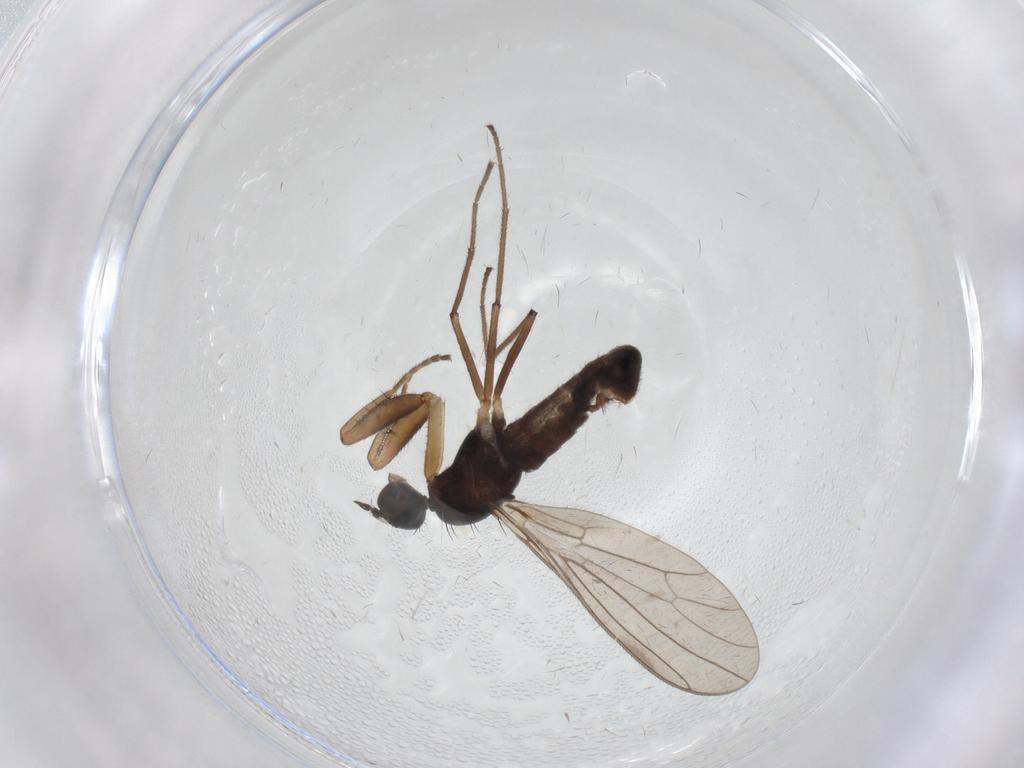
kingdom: Animalia
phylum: Arthropoda
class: Insecta
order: Diptera
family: Empididae
